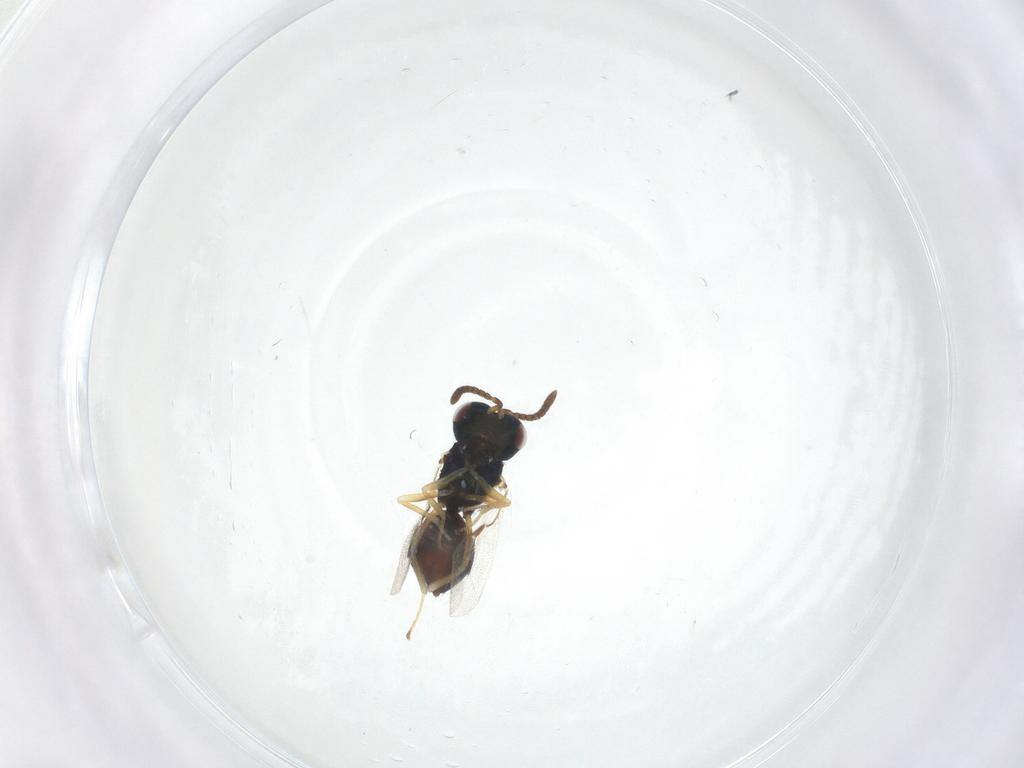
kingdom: Animalia
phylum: Arthropoda
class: Insecta
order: Hymenoptera
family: Pteromalidae
